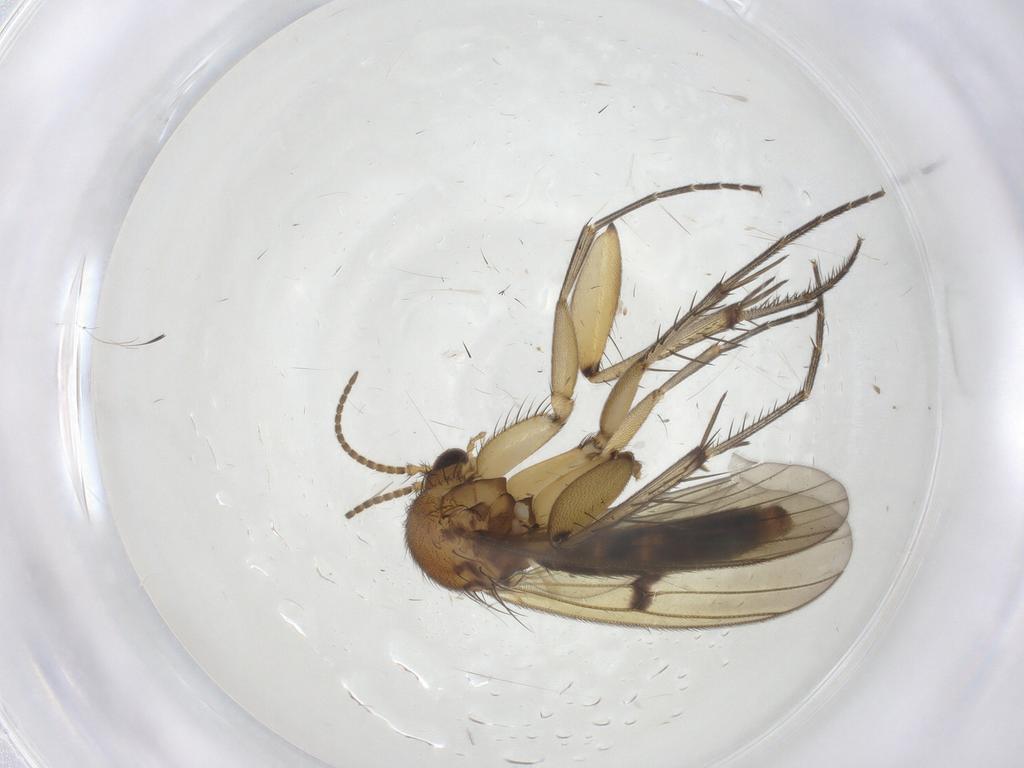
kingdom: Animalia
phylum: Arthropoda
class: Insecta
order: Diptera
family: Mycetophilidae
